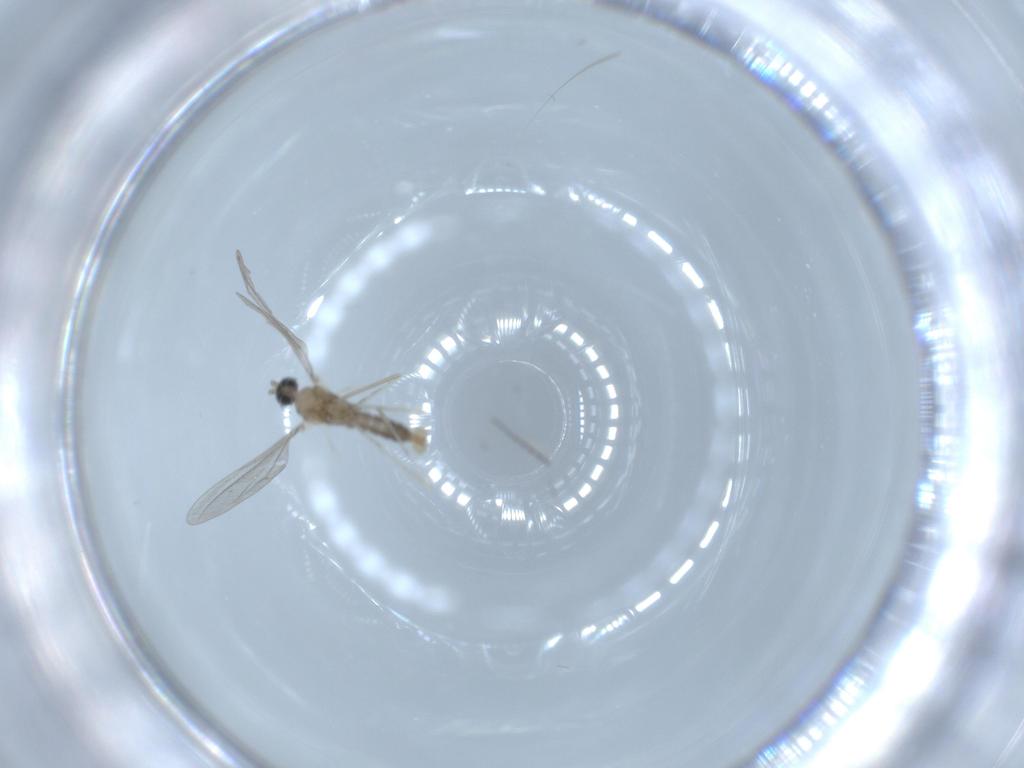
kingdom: Animalia
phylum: Arthropoda
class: Insecta
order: Diptera
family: Cecidomyiidae
